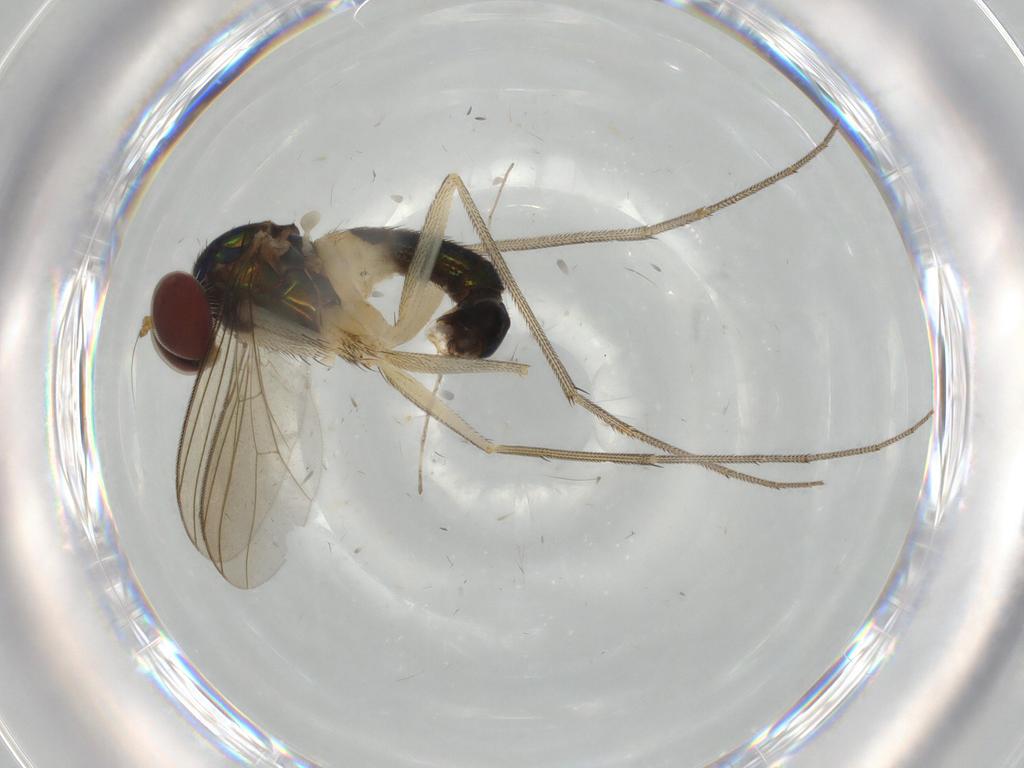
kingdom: Animalia
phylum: Arthropoda
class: Insecta
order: Diptera
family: Dolichopodidae
